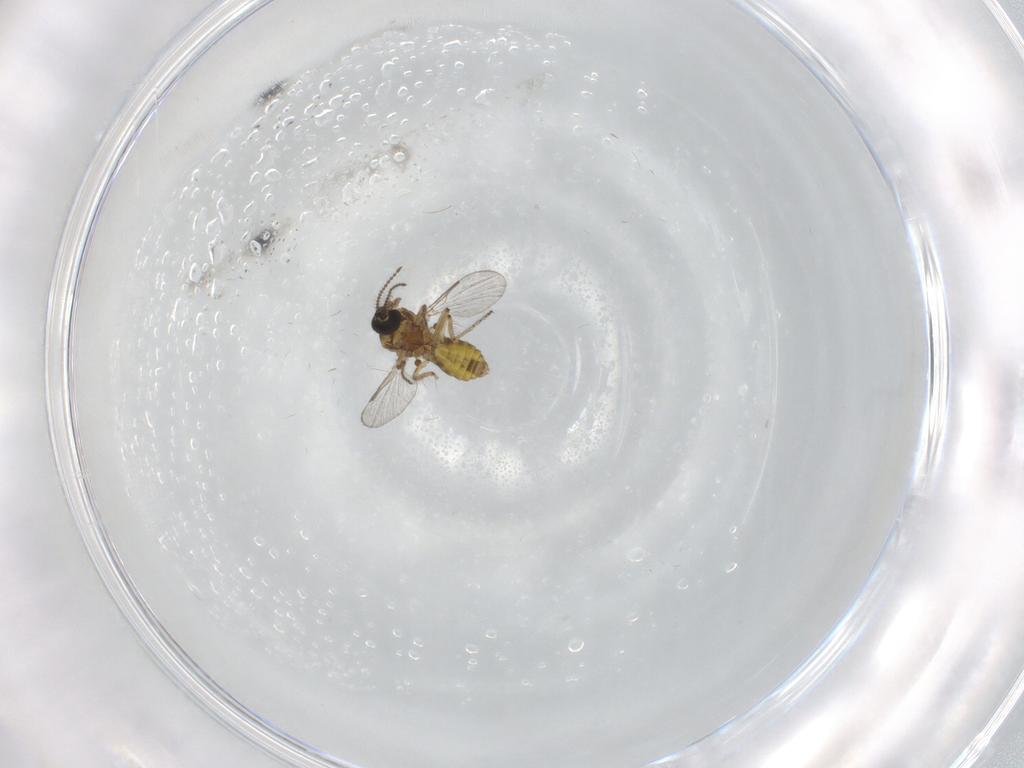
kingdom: Animalia
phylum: Arthropoda
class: Insecta
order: Diptera
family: Ceratopogonidae
